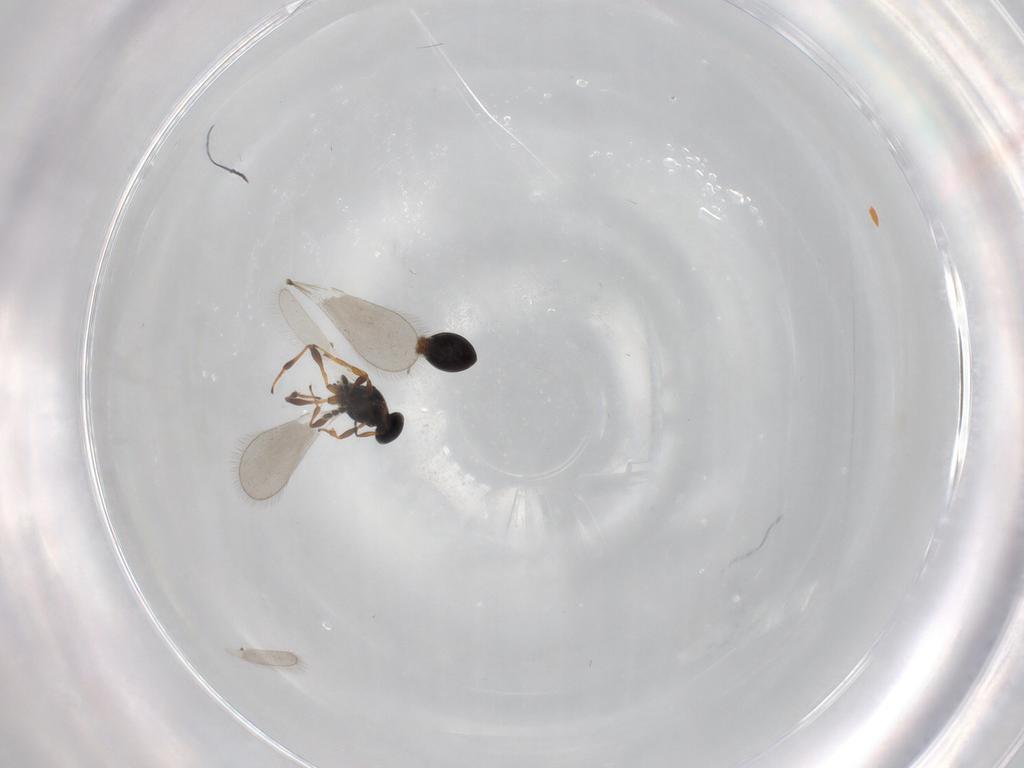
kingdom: Animalia
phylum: Arthropoda
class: Insecta
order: Hymenoptera
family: Platygastridae
